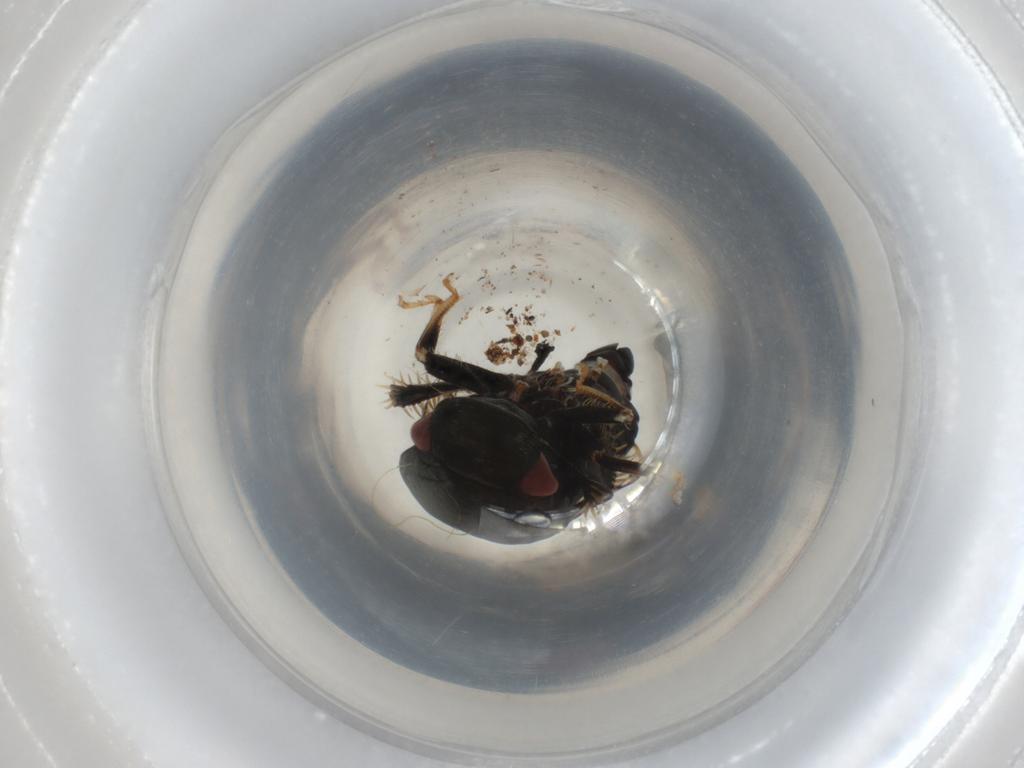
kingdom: Animalia
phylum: Arthropoda
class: Insecta
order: Hemiptera
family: Cicadellidae
